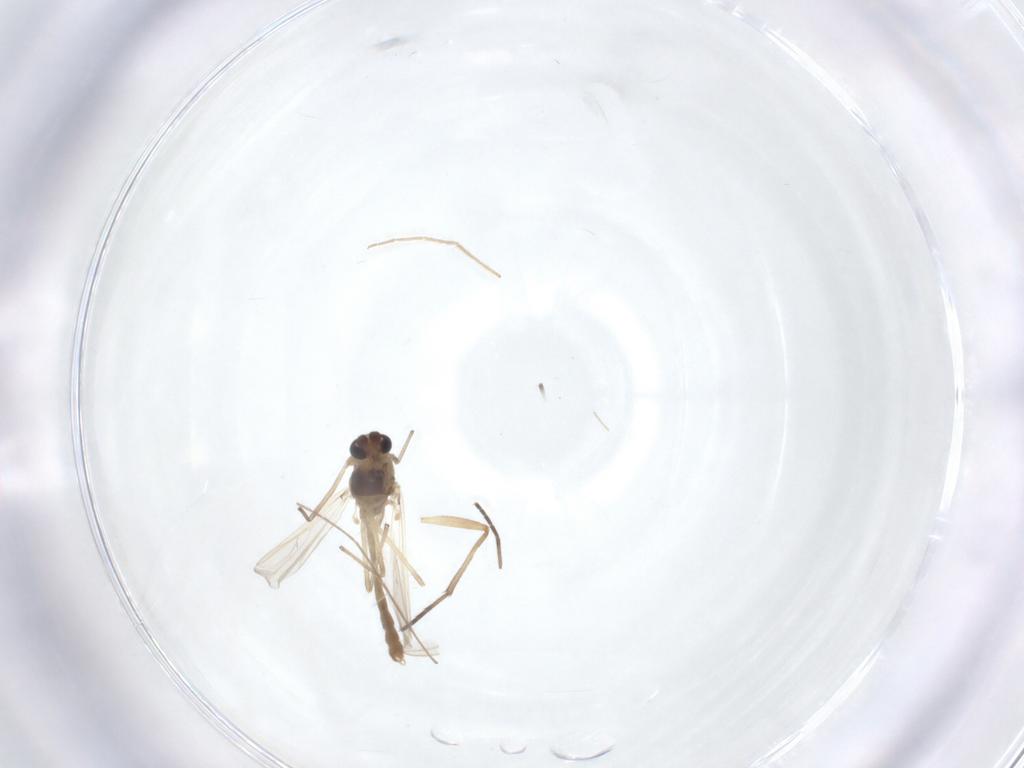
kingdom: Animalia
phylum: Arthropoda
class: Insecta
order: Diptera
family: Chironomidae
